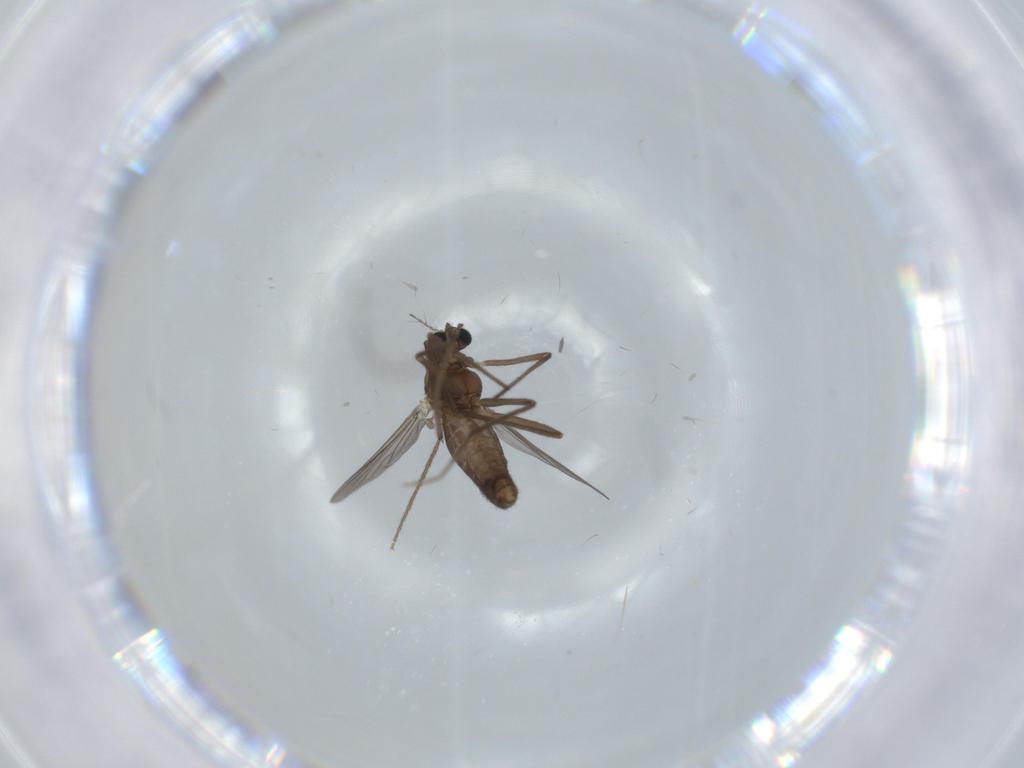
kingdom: Animalia
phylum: Arthropoda
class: Insecta
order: Diptera
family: Chironomidae
